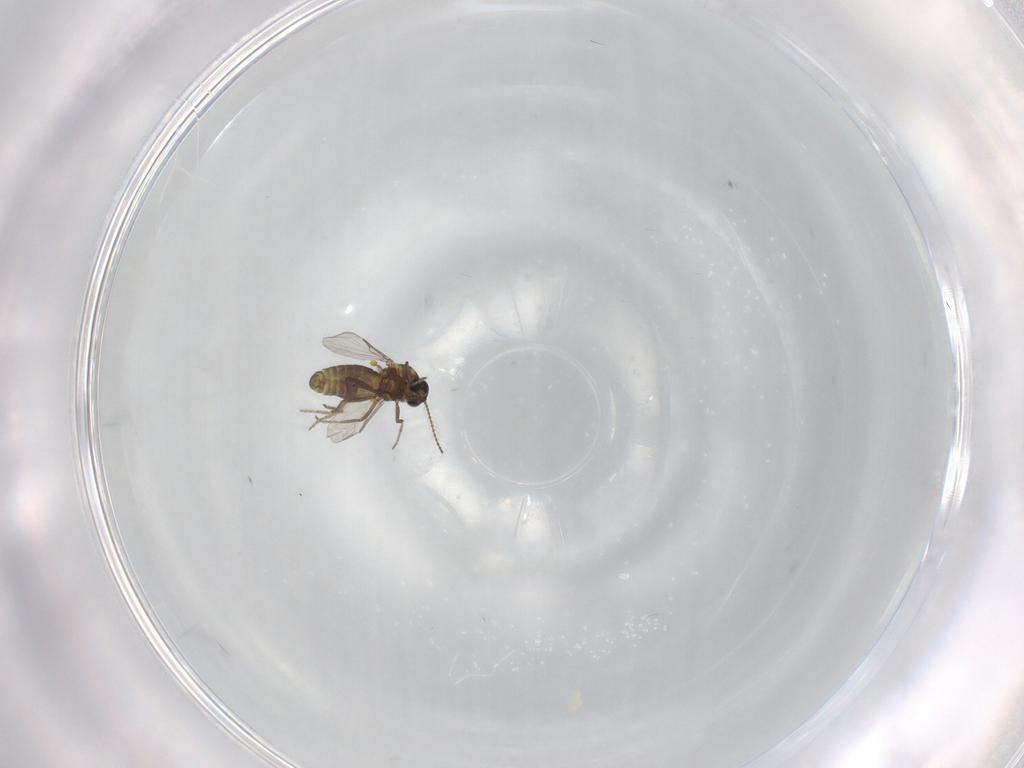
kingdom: Animalia
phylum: Arthropoda
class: Insecta
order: Diptera
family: Ceratopogonidae
